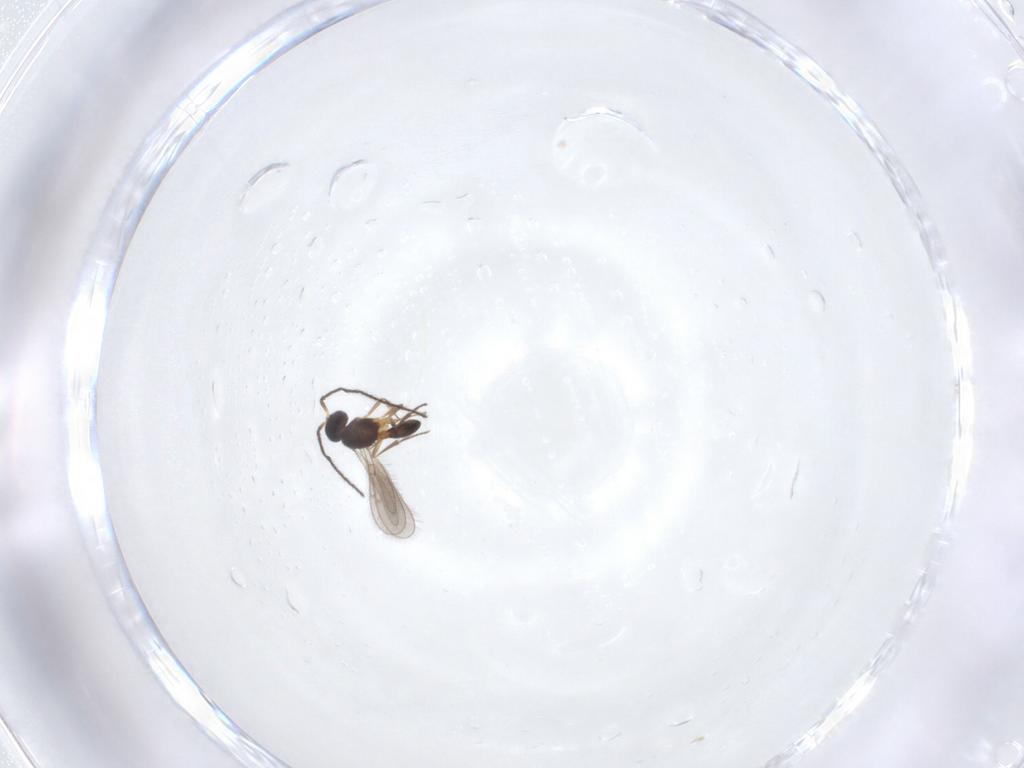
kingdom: Animalia
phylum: Arthropoda
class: Insecta
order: Hymenoptera
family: Scelionidae
